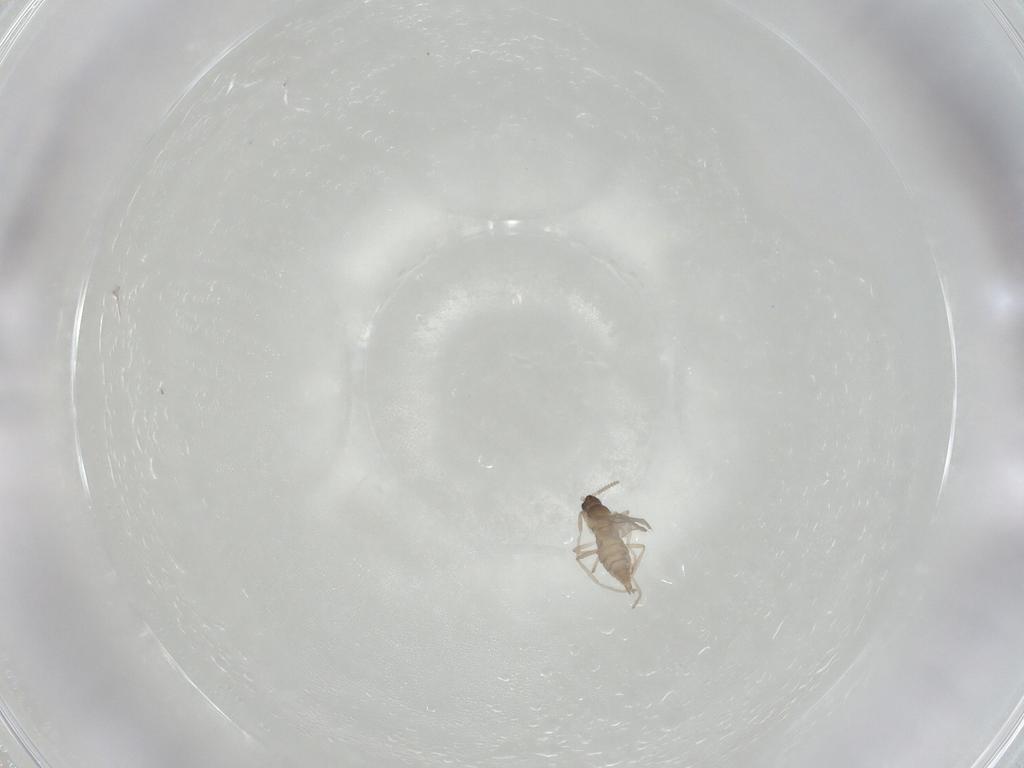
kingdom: Animalia
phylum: Arthropoda
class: Insecta
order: Diptera
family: Cecidomyiidae
